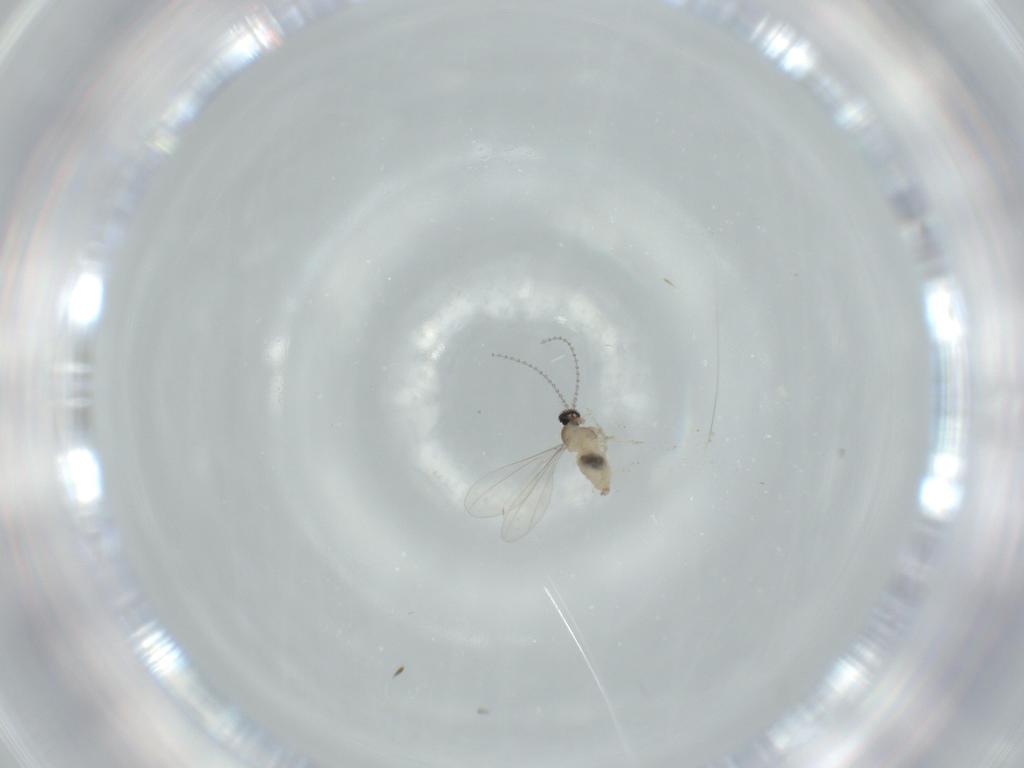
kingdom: Animalia
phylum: Arthropoda
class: Insecta
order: Diptera
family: Cecidomyiidae
